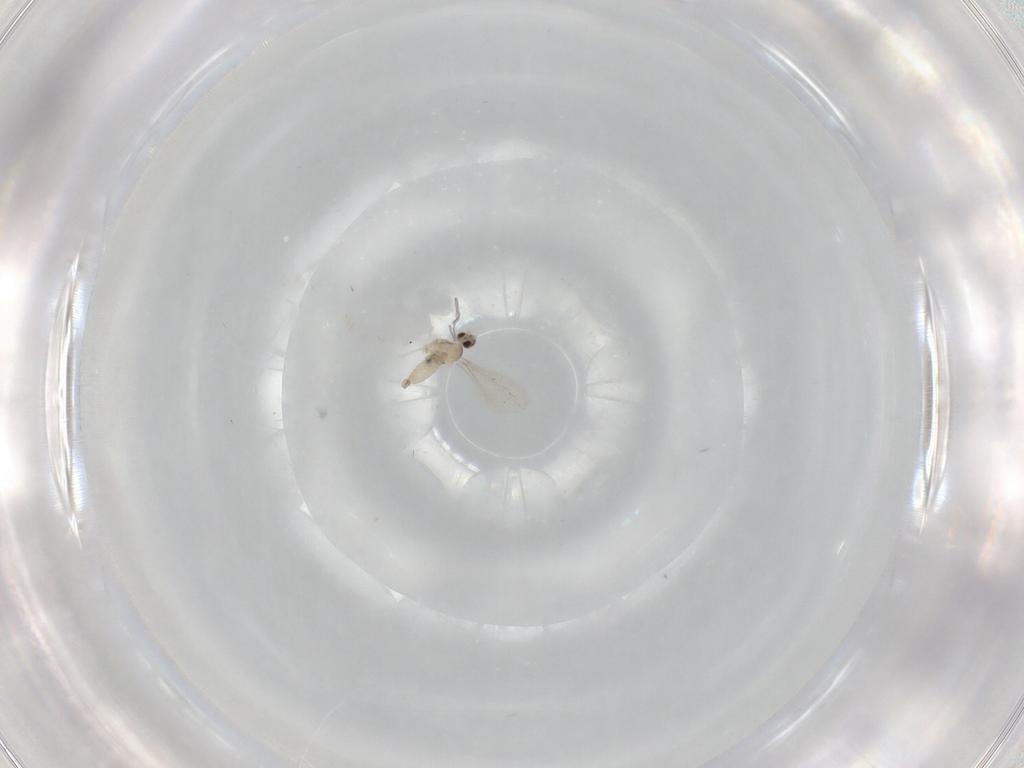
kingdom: Animalia
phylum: Arthropoda
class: Insecta
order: Diptera
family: Cecidomyiidae
